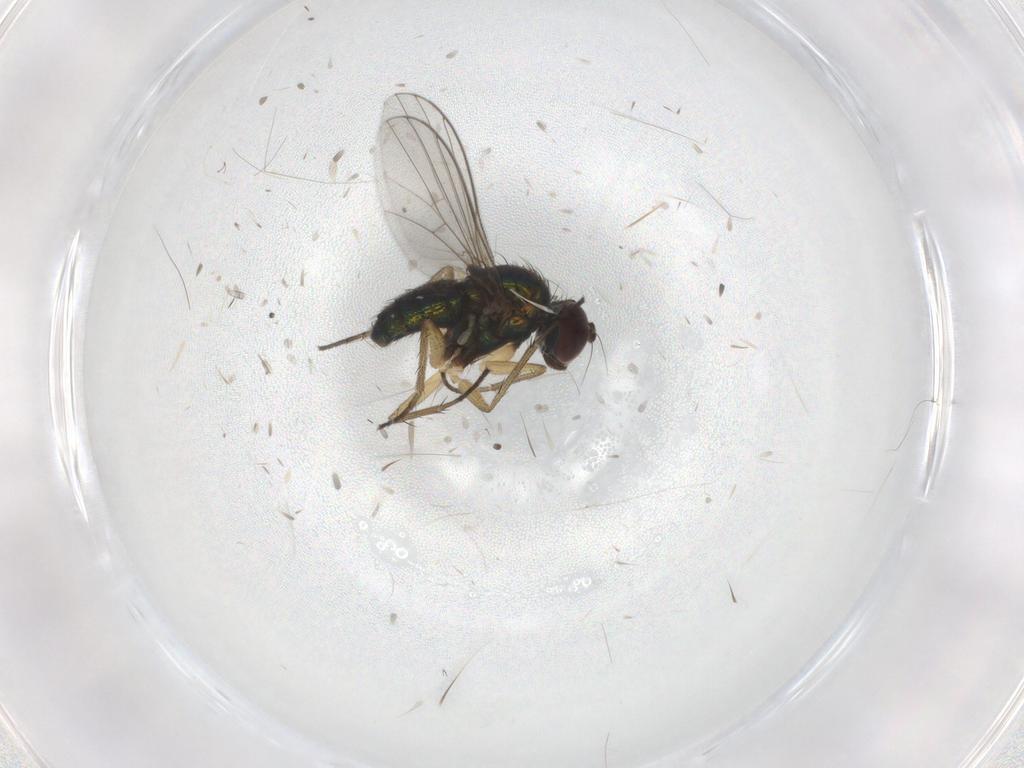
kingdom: Animalia
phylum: Arthropoda
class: Insecta
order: Diptera
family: Cecidomyiidae
